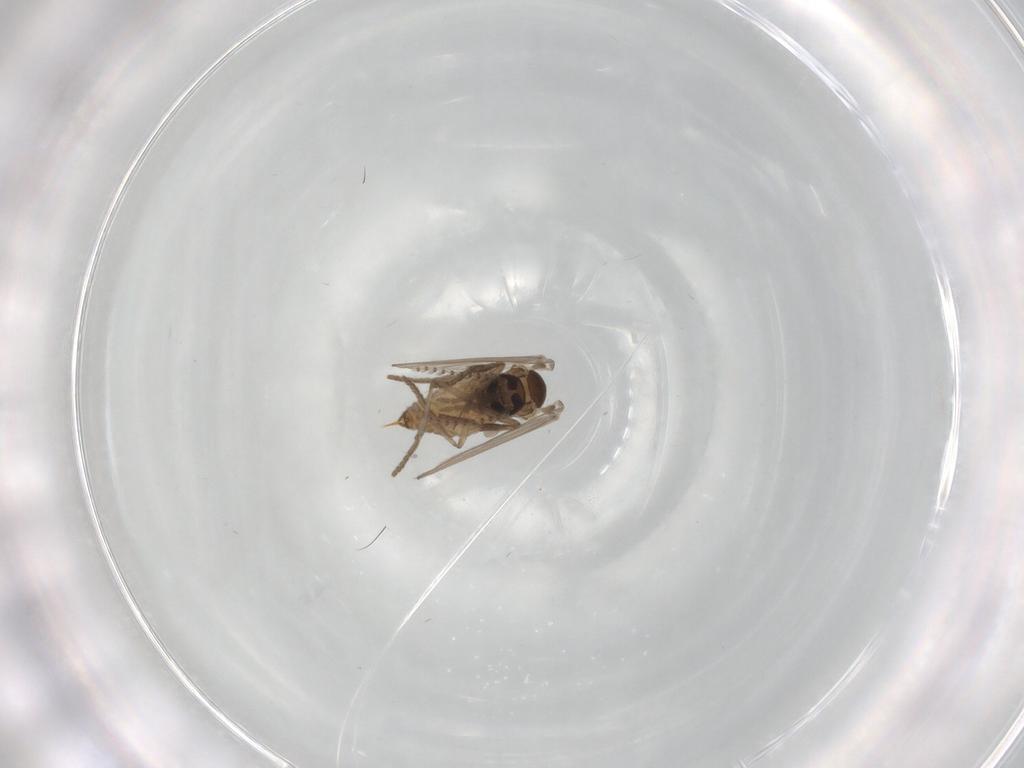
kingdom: Animalia
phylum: Arthropoda
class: Insecta
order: Diptera
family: Psychodidae
